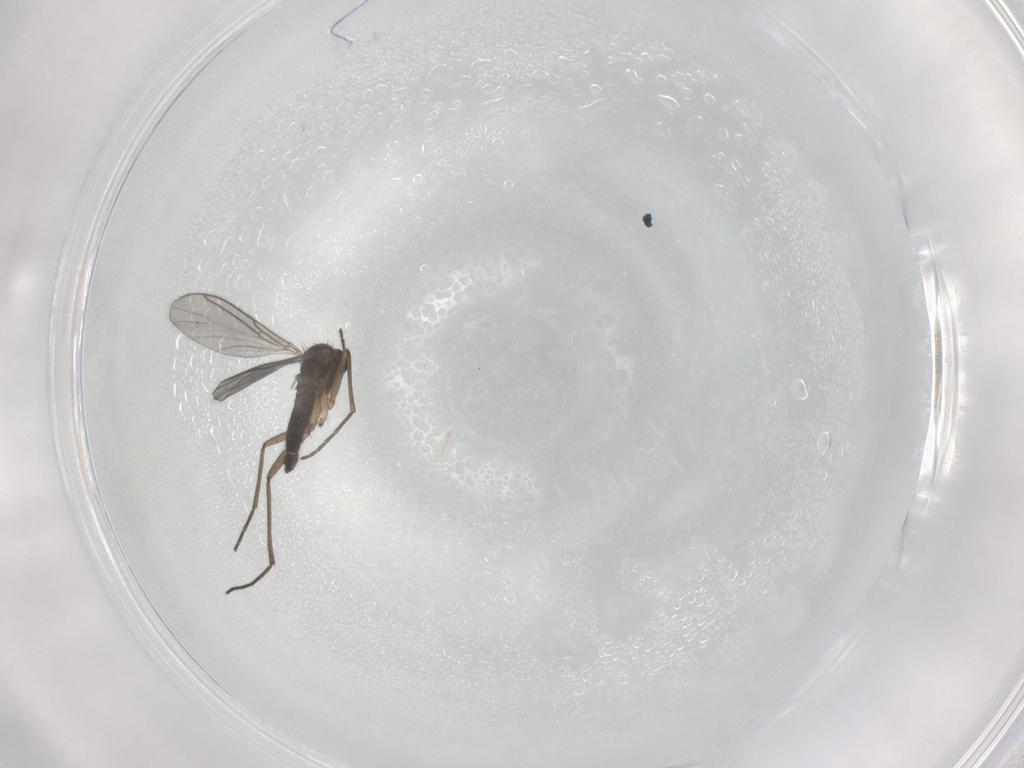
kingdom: Animalia
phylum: Arthropoda
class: Insecta
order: Diptera
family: Sciaridae
